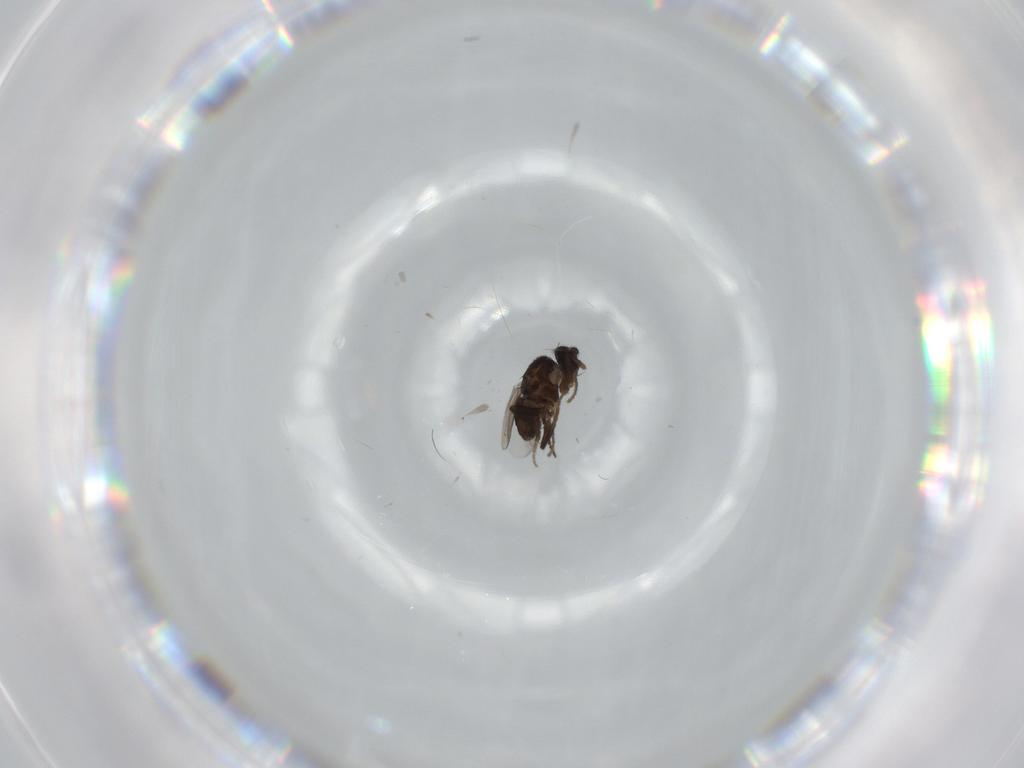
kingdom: Animalia
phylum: Arthropoda
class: Insecta
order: Diptera
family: Sciaridae
